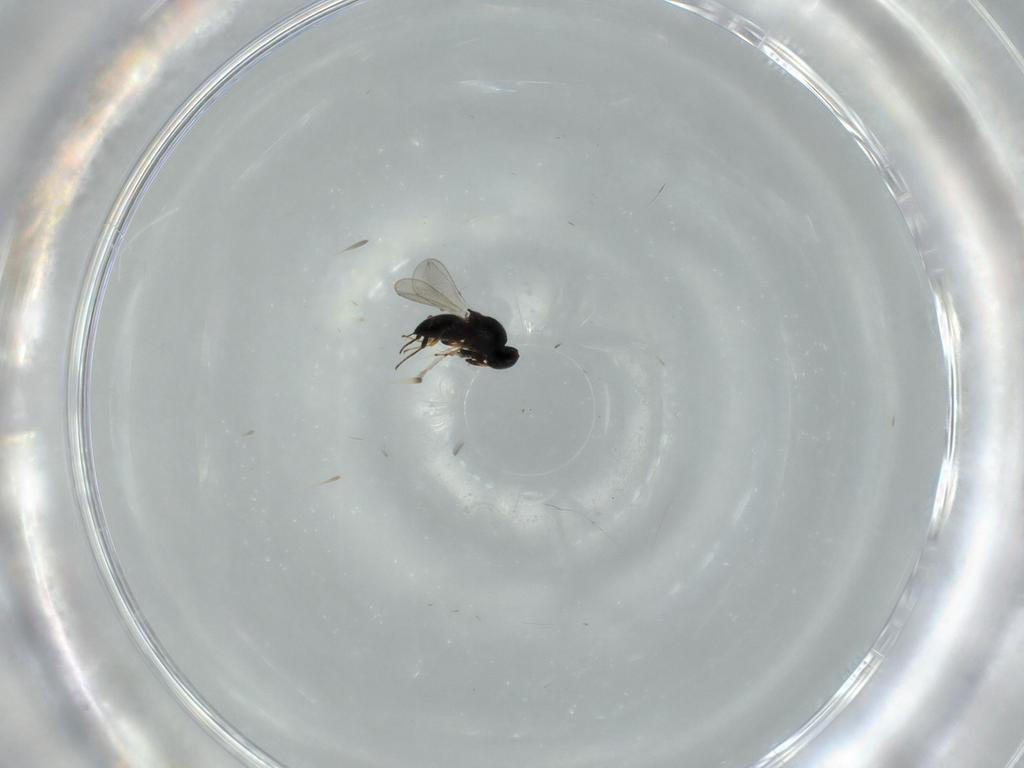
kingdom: Animalia
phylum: Arthropoda
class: Insecta
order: Hymenoptera
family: Platygastridae
